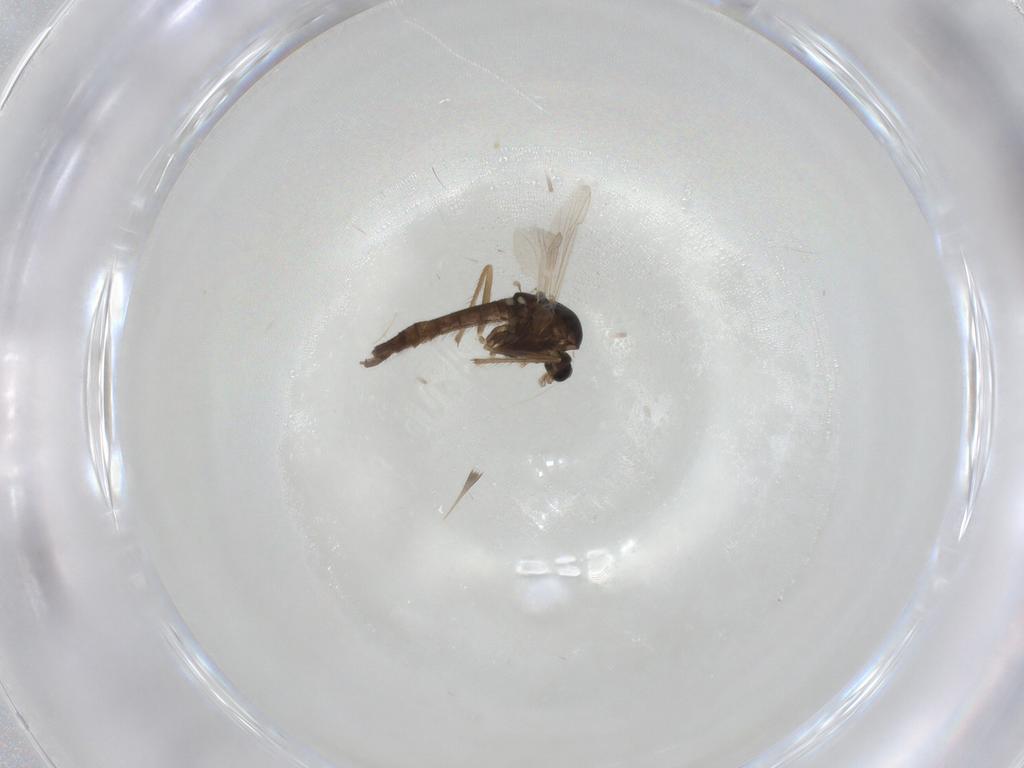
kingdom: Animalia
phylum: Arthropoda
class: Insecta
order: Diptera
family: Chironomidae
